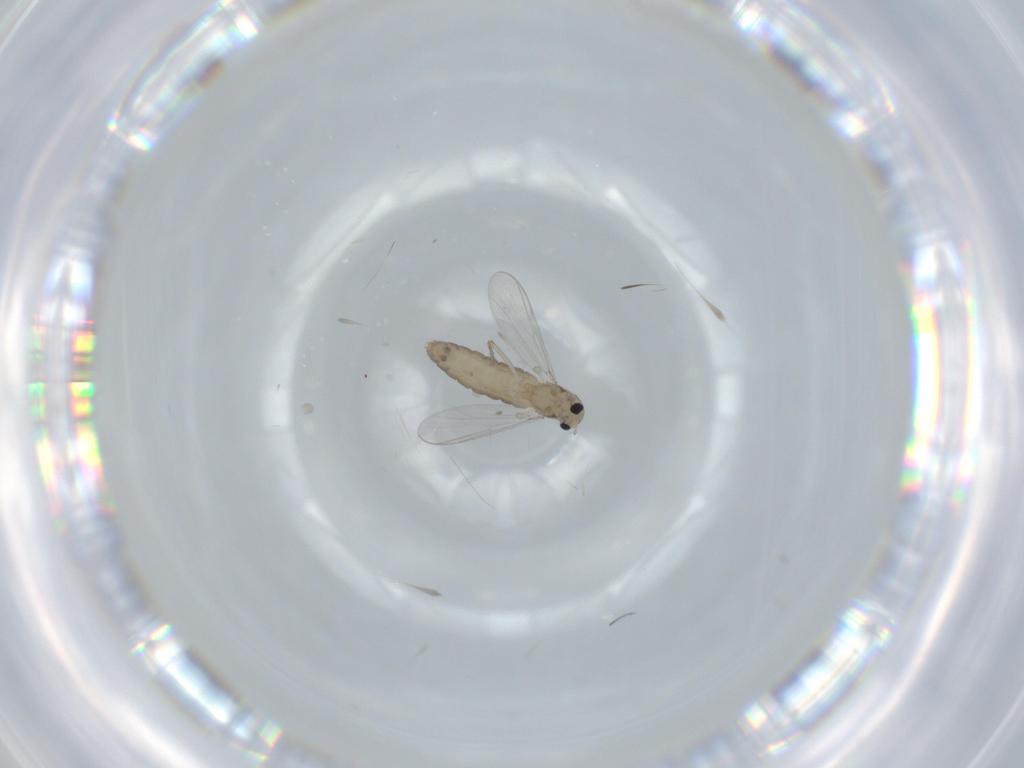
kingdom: Animalia
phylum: Arthropoda
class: Insecta
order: Diptera
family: Chironomidae
